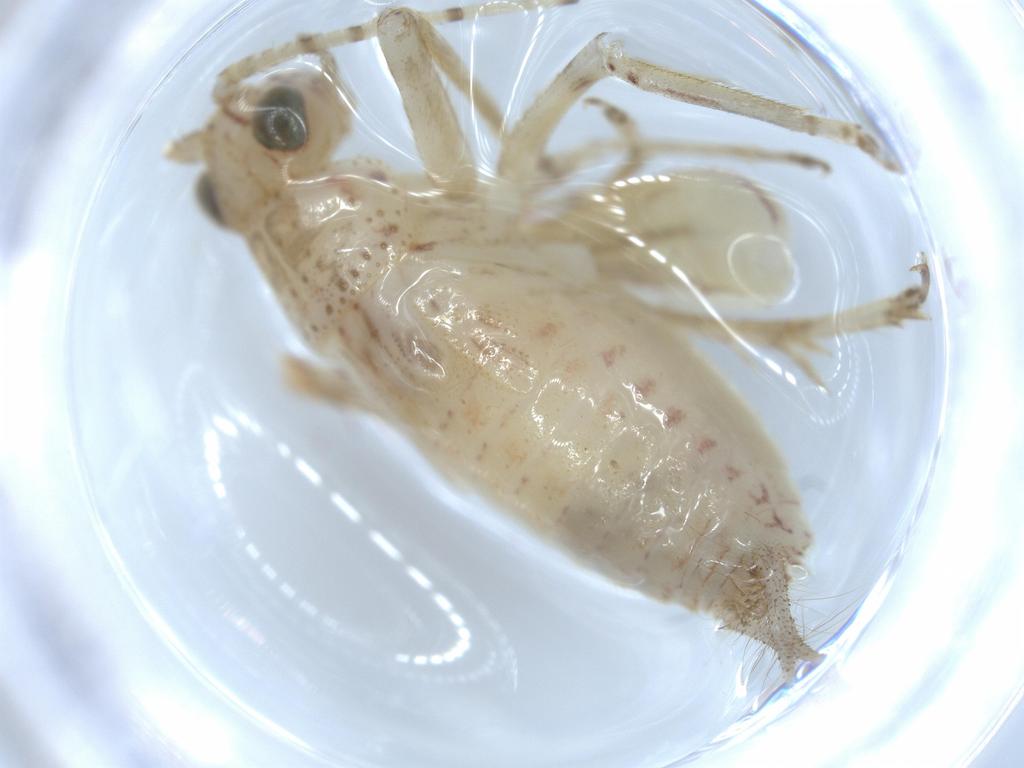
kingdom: Animalia
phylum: Arthropoda
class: Insecta
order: Orthoptera
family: Trigonidiidae
